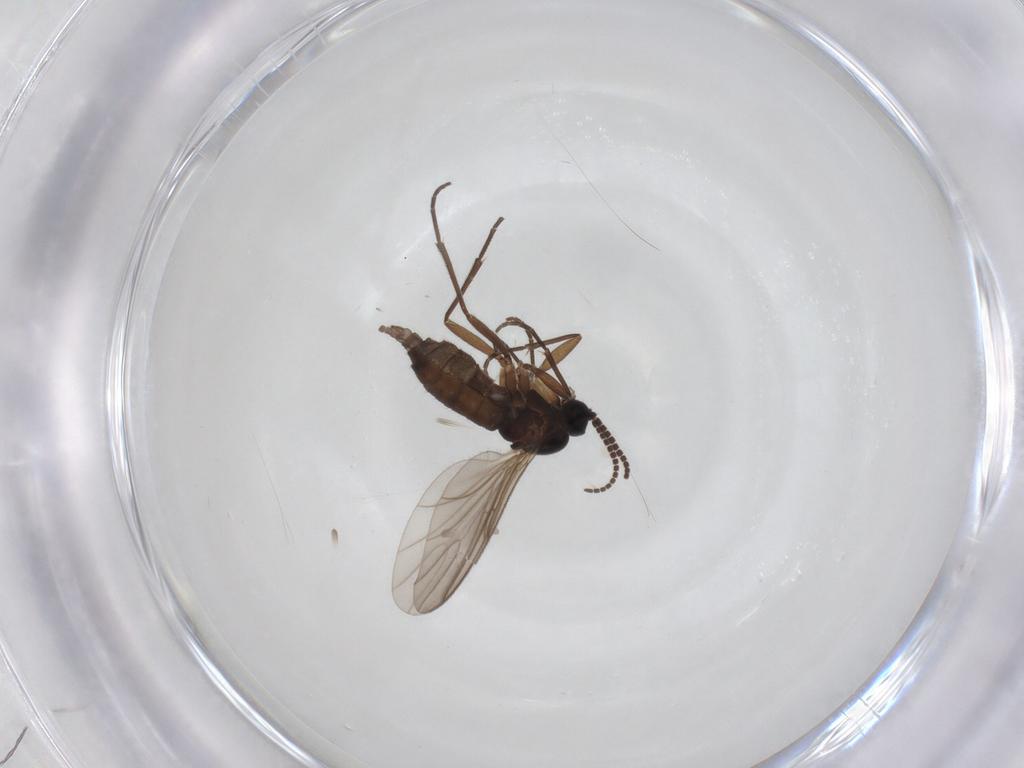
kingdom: Animalia
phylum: Arthropoda
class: Insecta
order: Diptera
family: Sciaridae
